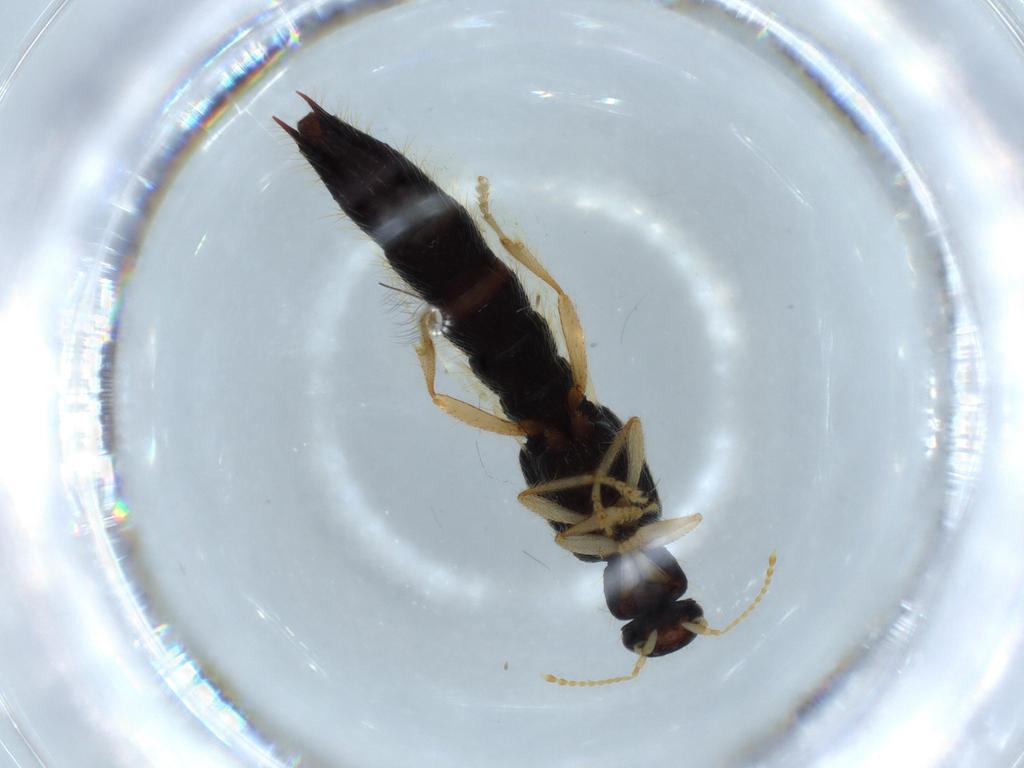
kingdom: Animalia
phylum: Arthropoda
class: Insecta
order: Coleoptera
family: Staphylinidae
